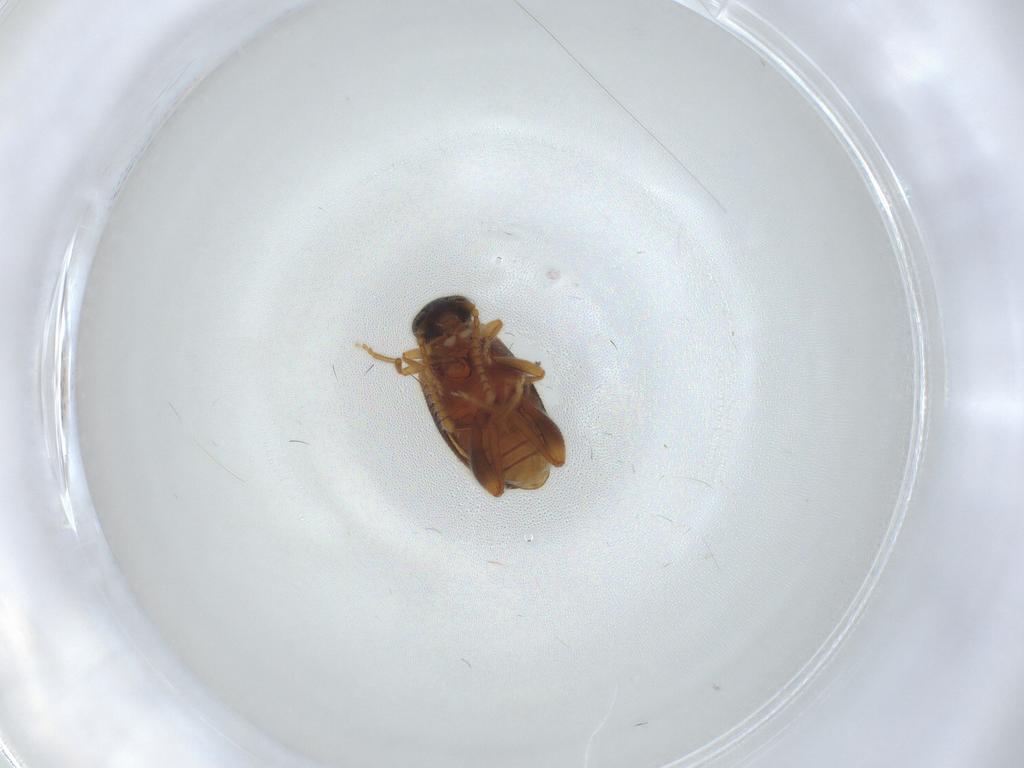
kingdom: Animalia
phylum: Arthropoda
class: Insecta
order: Coleoptera
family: Aderidae
